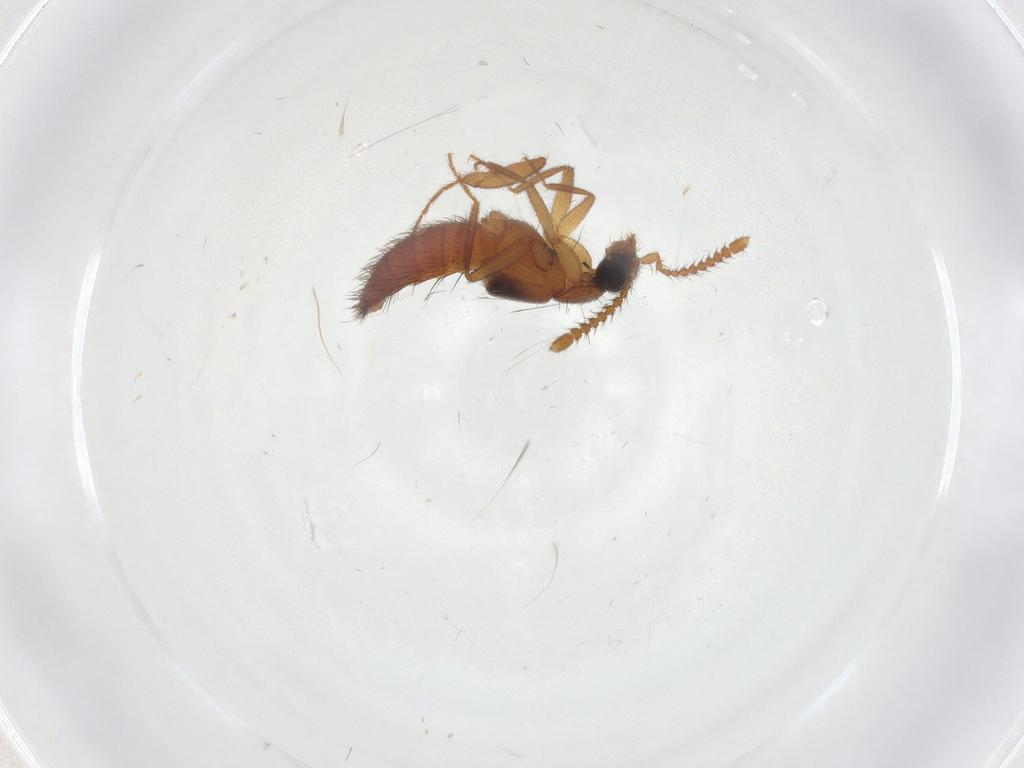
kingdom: Animalia
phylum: Arthropoda
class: Insecta
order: Coleoptera
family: Staphylinidae
